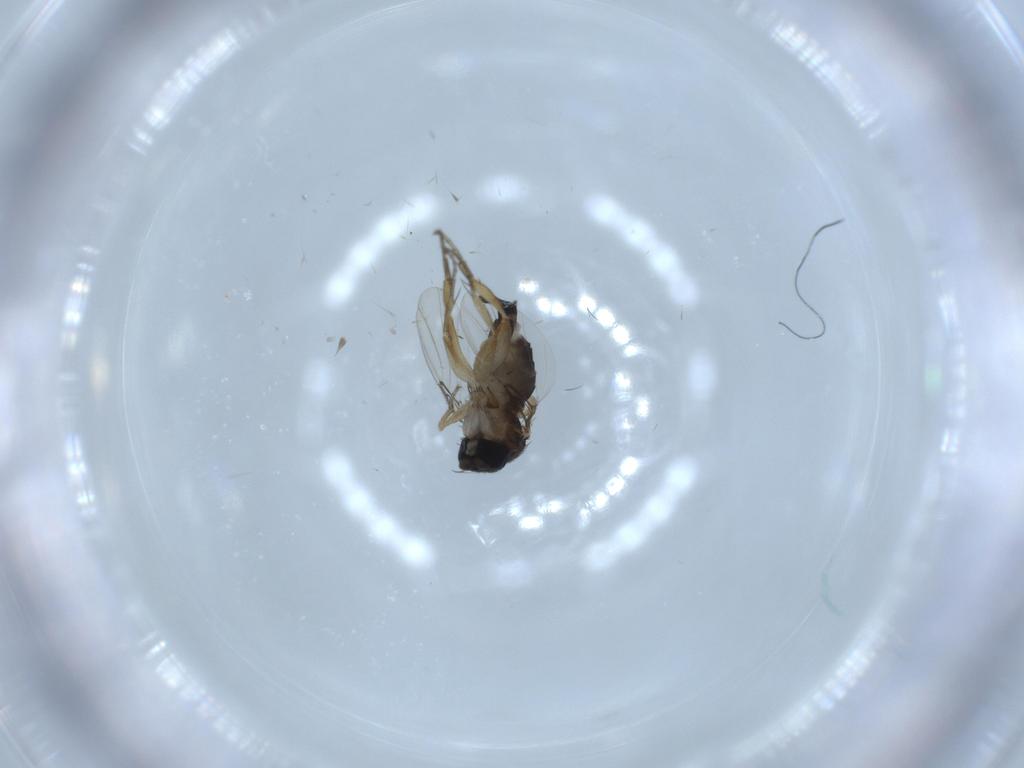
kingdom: Animalia
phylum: Arthropoda
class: Insecta
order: Diptera
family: Phoridae
